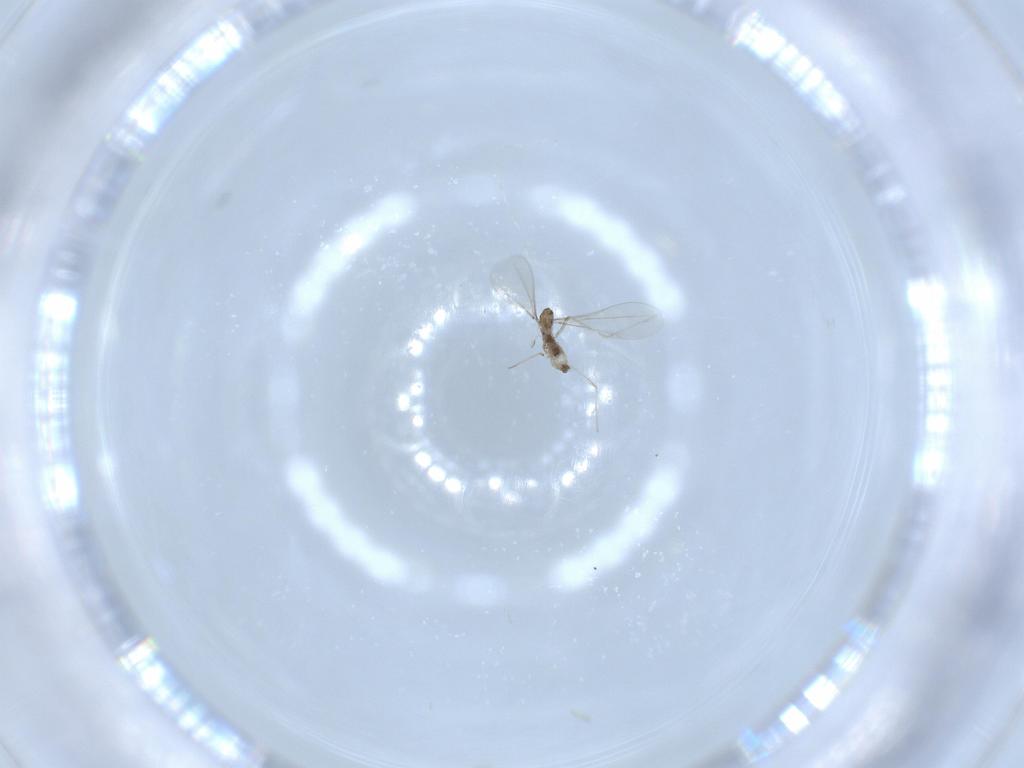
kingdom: Animalia
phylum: Arthropoda
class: Insecta
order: Diptera
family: Cecidomyiidae
